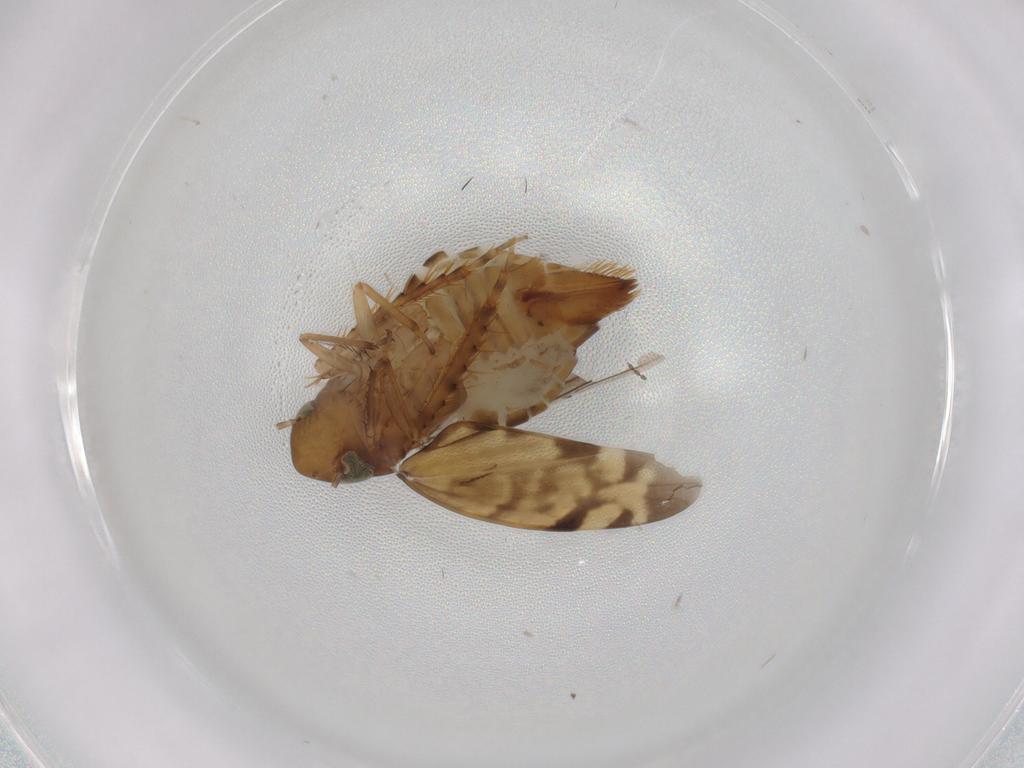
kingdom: Animalia
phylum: Arthropoda
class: Insecta
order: Hemiptera
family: Cicadellidae
